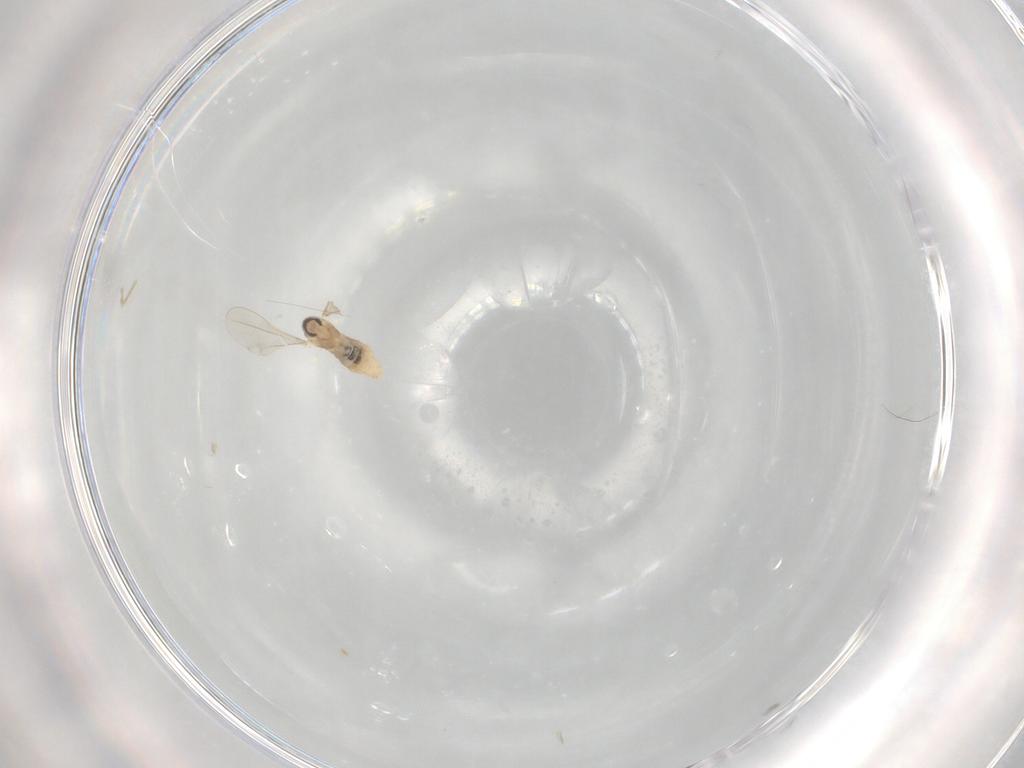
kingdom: Animalia
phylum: Arthropoda
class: Insecta
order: Diptera
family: Cecidomyiidae
